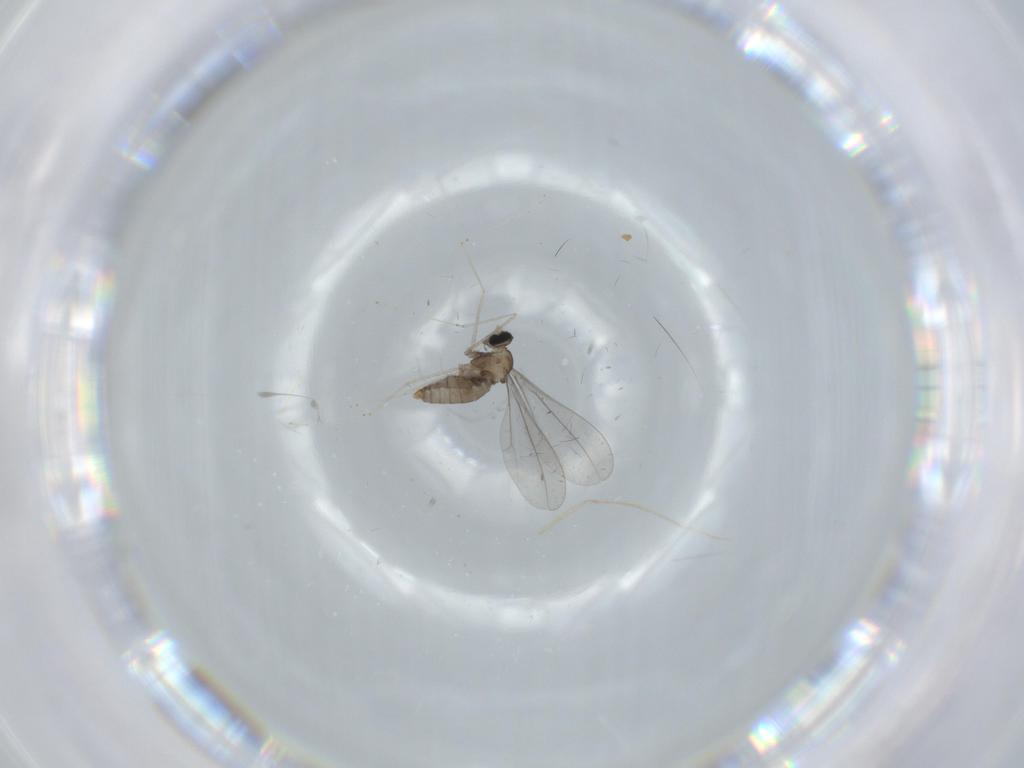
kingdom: Animalia
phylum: Arthropoda
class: Insecta
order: Diptera
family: Cecidomyiidae
